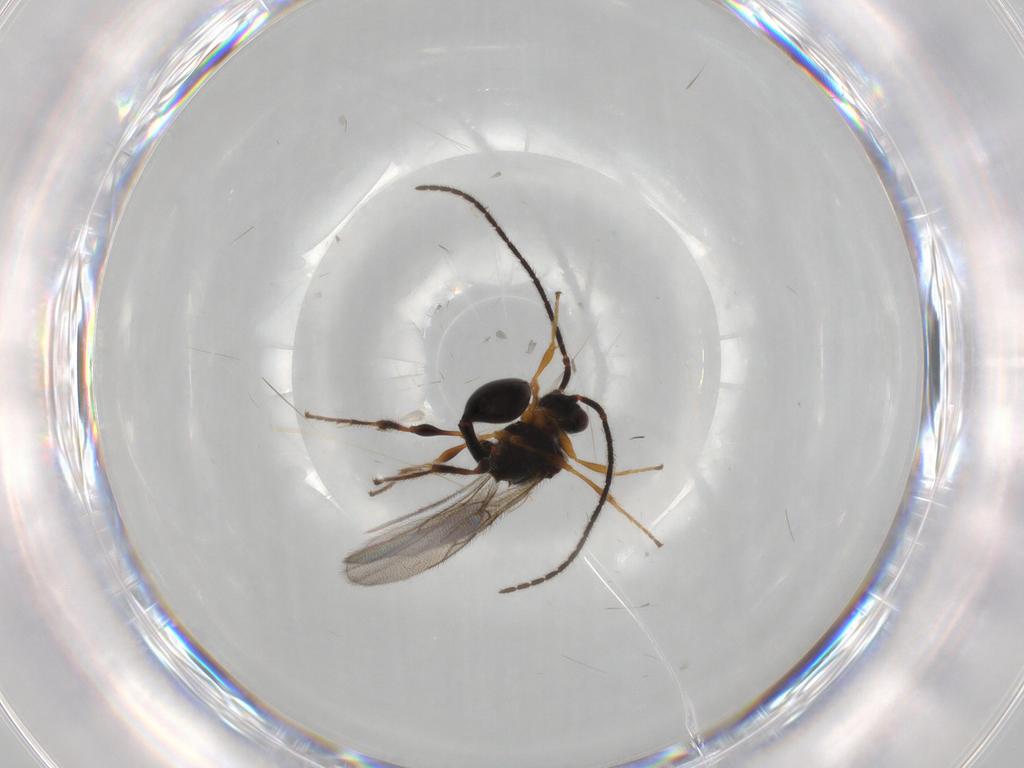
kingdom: Animalia
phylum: Arthropoda
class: Insecta
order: Hymenoptera
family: Diapriidae
